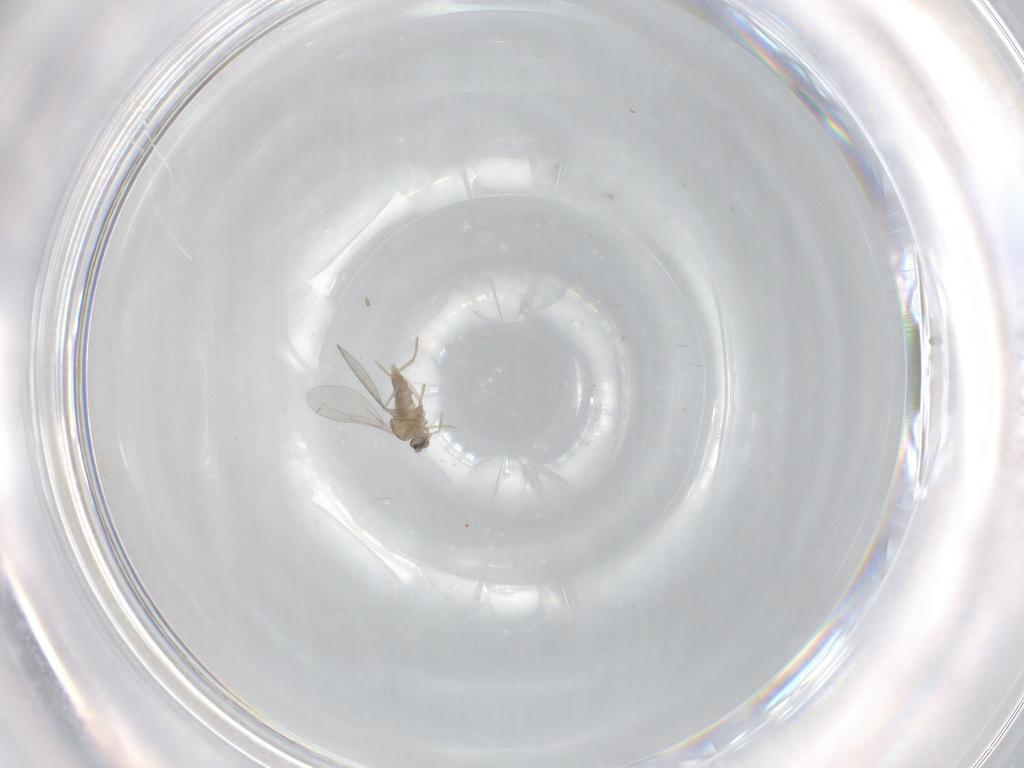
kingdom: Animalia
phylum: Arthropoda
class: Insecta
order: Diptera
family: Cecidomyiidae
